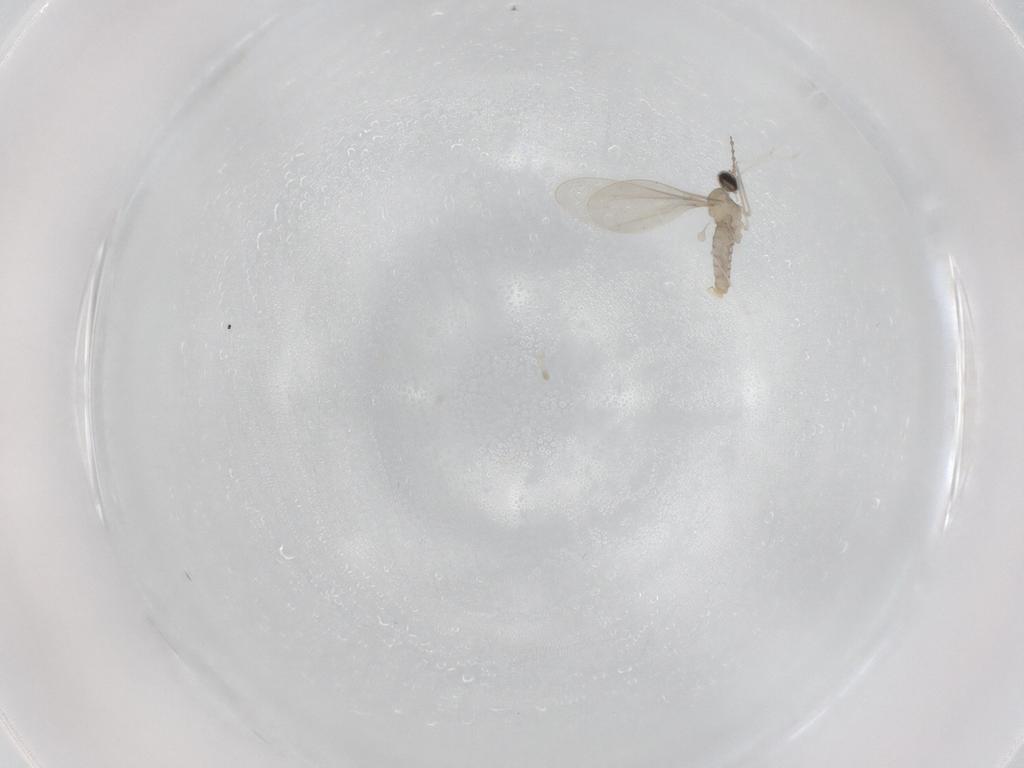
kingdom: Animalia
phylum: Arthropoda
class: Insecta
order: Diptera
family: Cecidomyiidae
